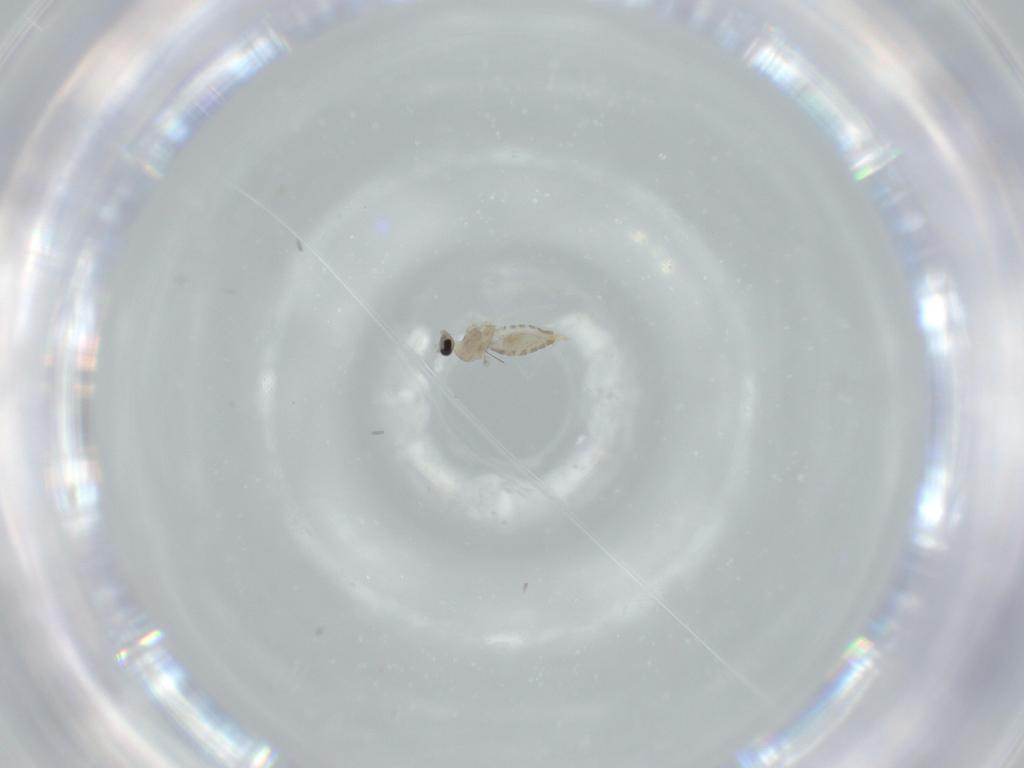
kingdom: Animalia
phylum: Arthropoda
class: Insecta
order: Diptera
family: Cecidomyiidae
